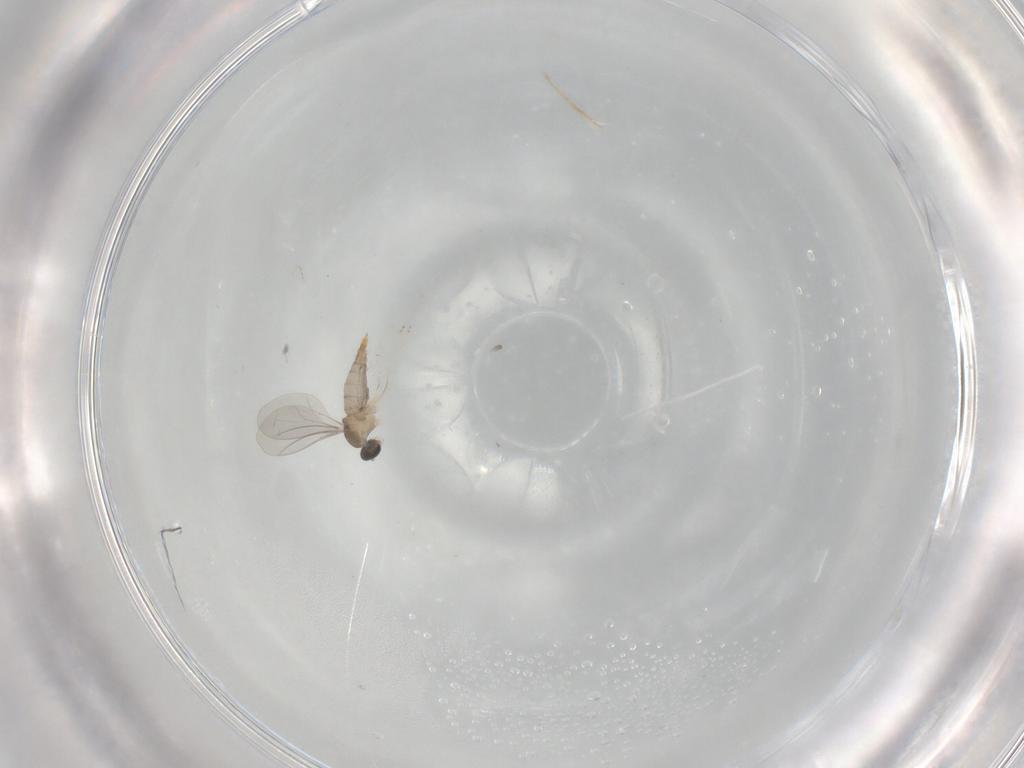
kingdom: Animalia
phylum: Arthropoda
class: Insecta
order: Diptera
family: Cecidomyiidae
